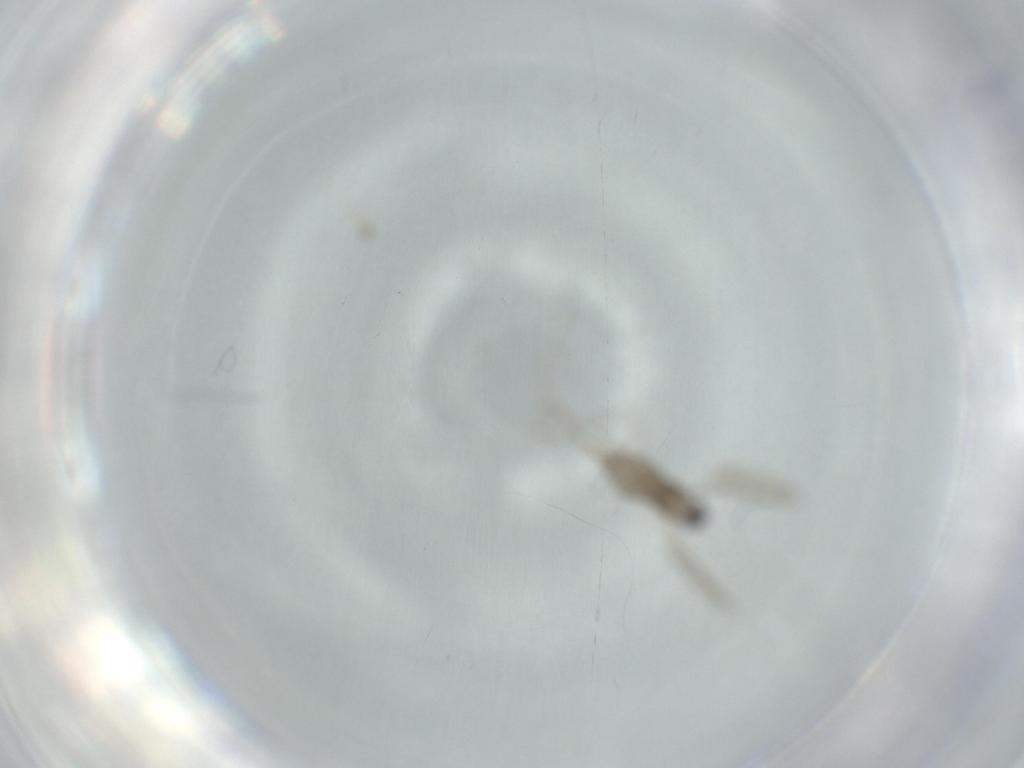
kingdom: Animalia
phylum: Arthropoda
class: Insecta
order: Diptera
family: Cecidomyiidae
